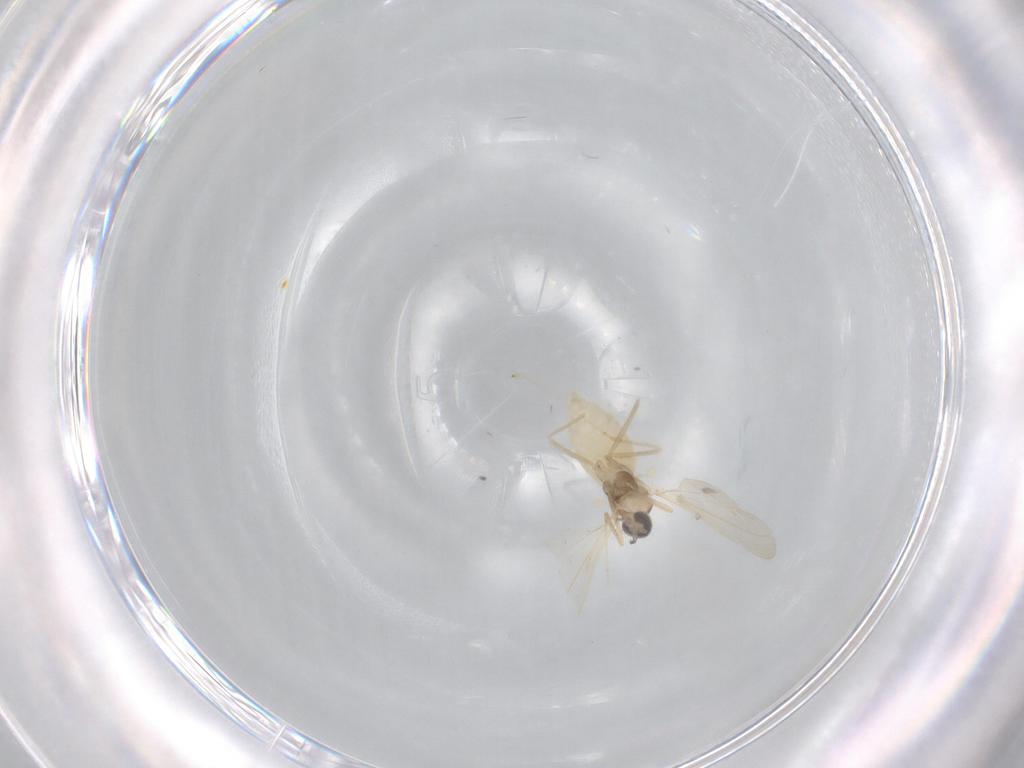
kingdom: Animalia
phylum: Arthropoda
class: Insecta
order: Diptera
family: Cecidomyiidae
